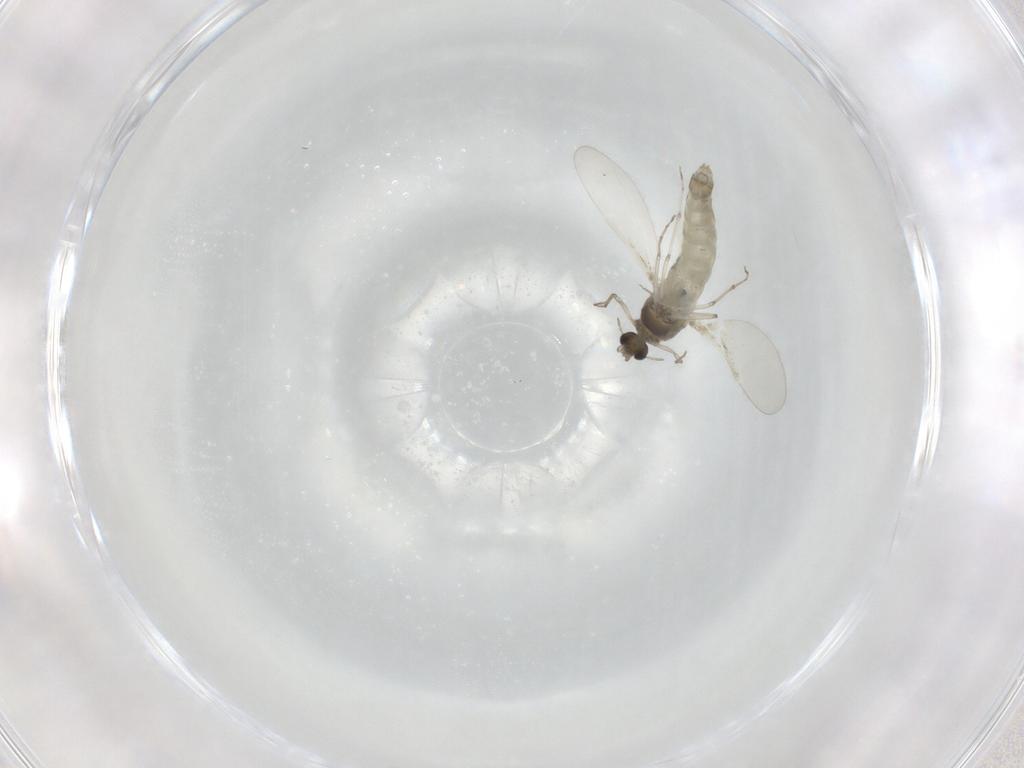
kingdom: Animalia
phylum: Arthropoda
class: Insecta
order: Diptera
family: Chironomidae
